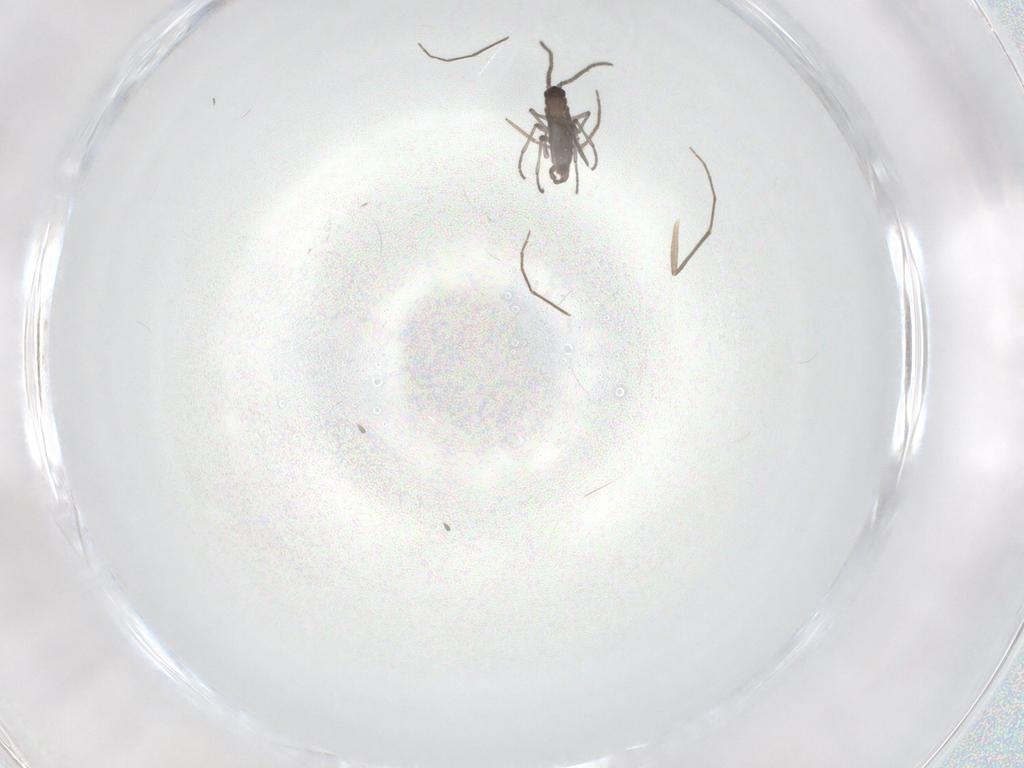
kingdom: Animalia
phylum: Arthropoda
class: Insecta
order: Diptera
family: Sciaridae
